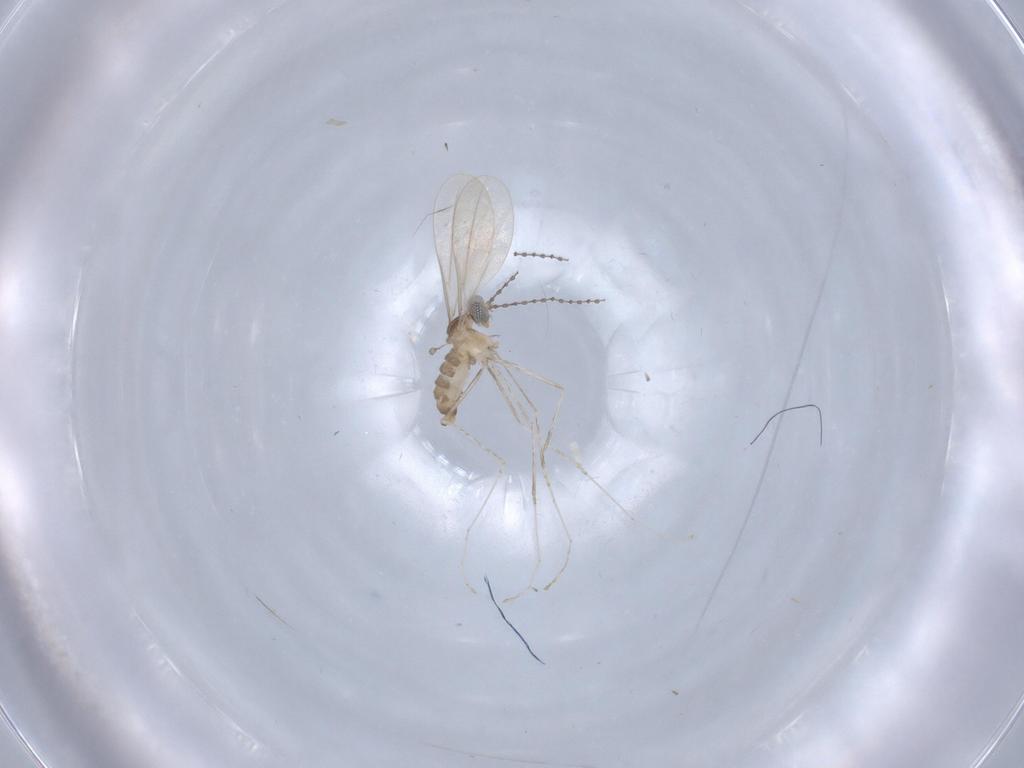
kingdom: Animalia
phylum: Arthropoda
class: Insecta
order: Diptera
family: Cecidomyiidae
